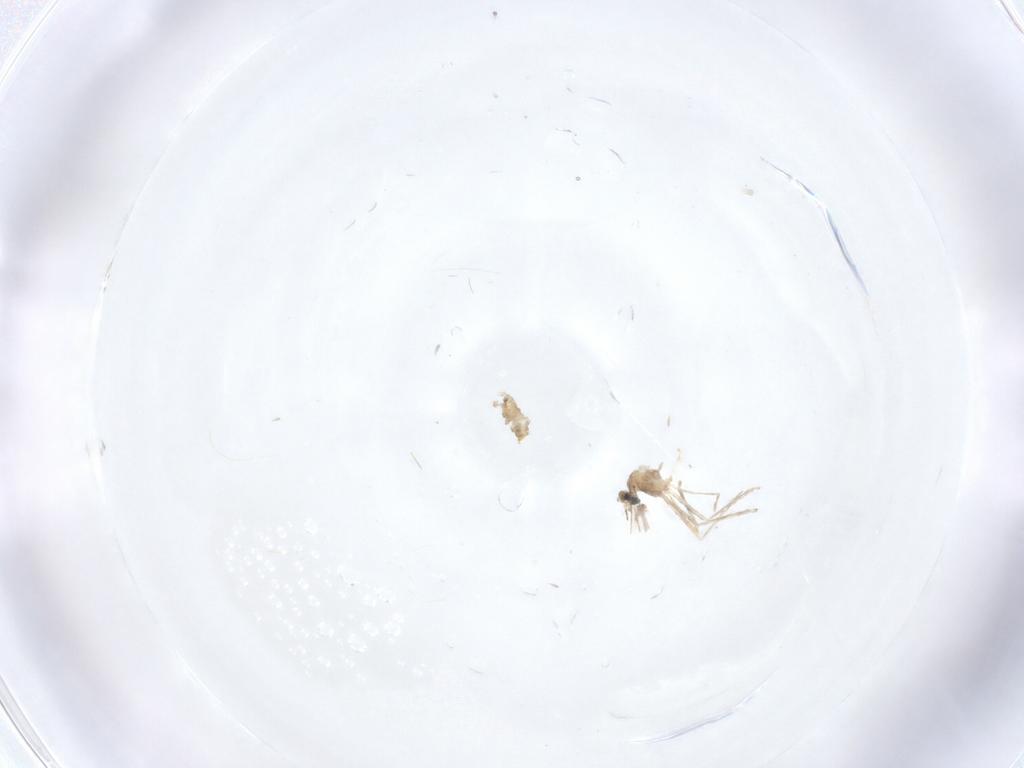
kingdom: Animalia
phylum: Arthropoda
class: Insecta
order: Diptera
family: Cecidomyiidae
